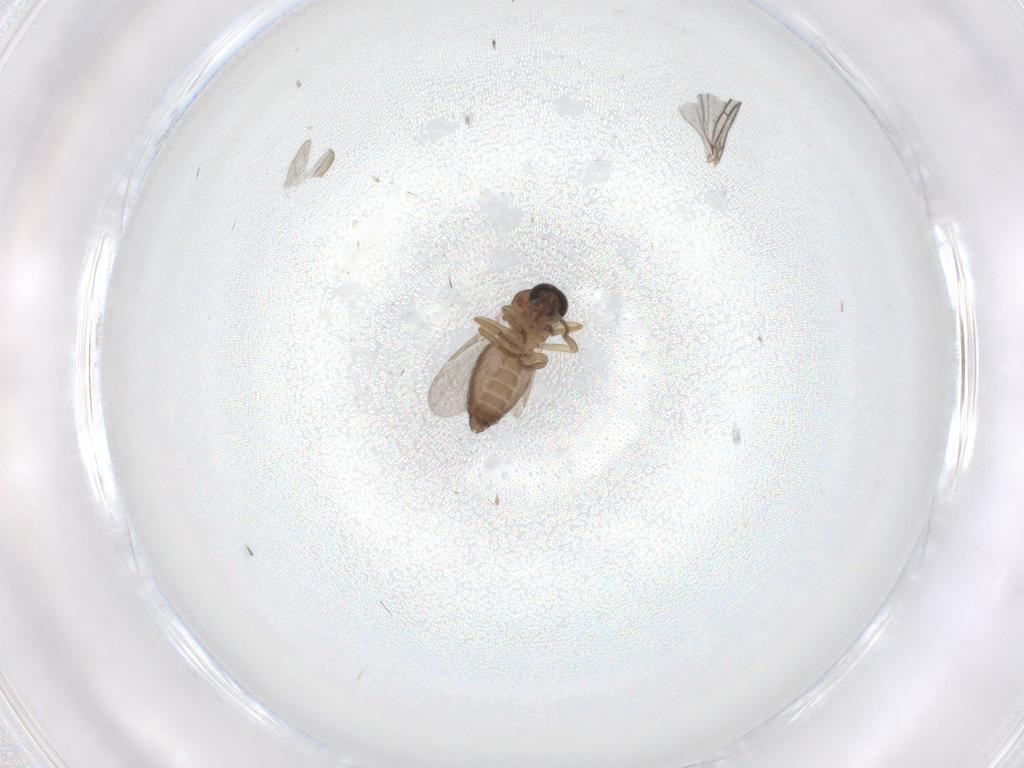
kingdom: Animalia
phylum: Arthropoda
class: Insecta
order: Diptera
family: Ceratopogonidae
